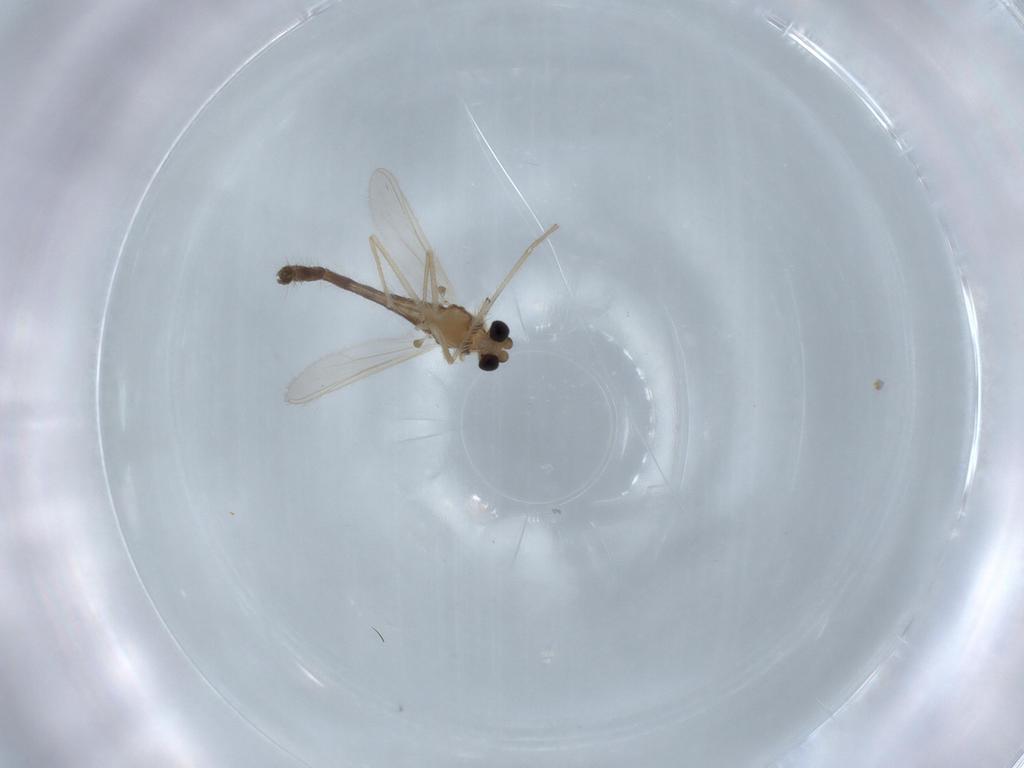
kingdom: Animalia
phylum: Arthropoda
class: Insecta
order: Diptera
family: Chironomidae
